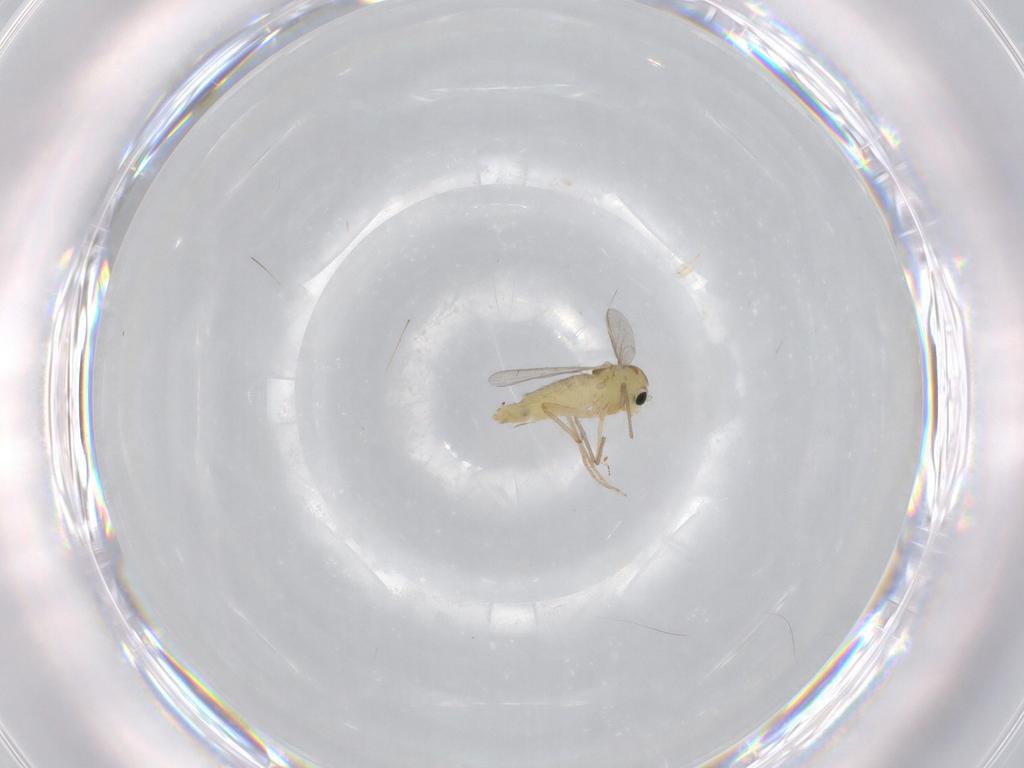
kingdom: Animalia
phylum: Arthropoda
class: Insecta
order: Diptera
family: Chironomidae
